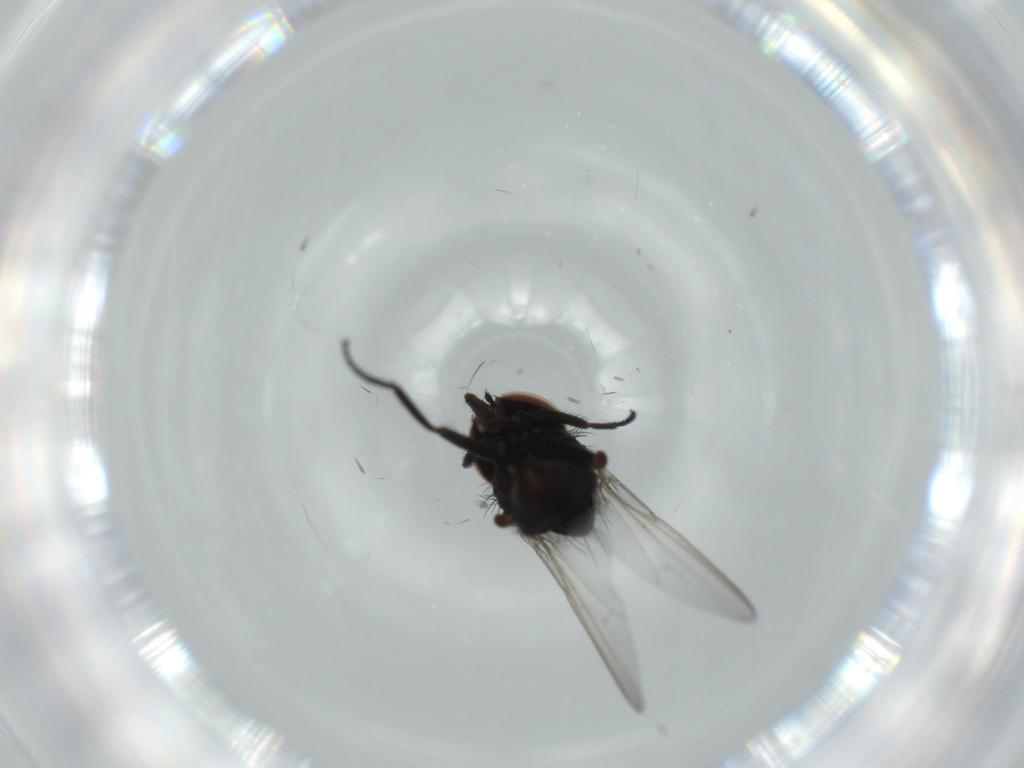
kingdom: Animalia
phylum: Arthropoda
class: Insecta
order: Diptera
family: Milichiidae
